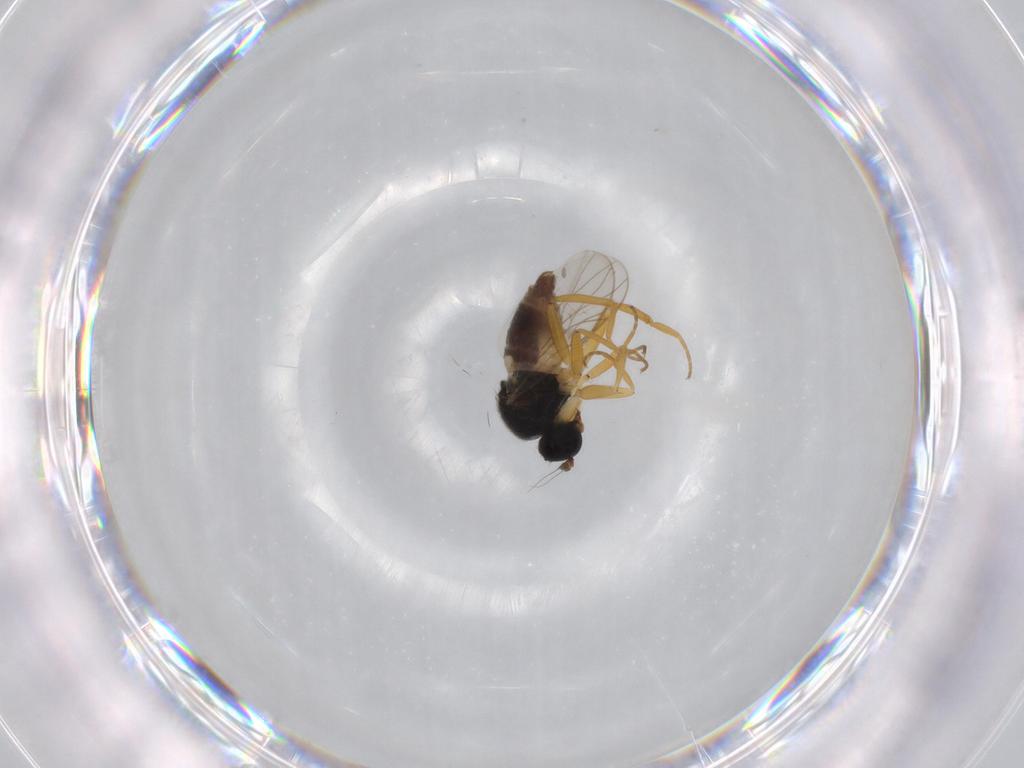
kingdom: Animalia
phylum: Arthropoda
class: Insecta
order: Diptera
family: Hybotidae
